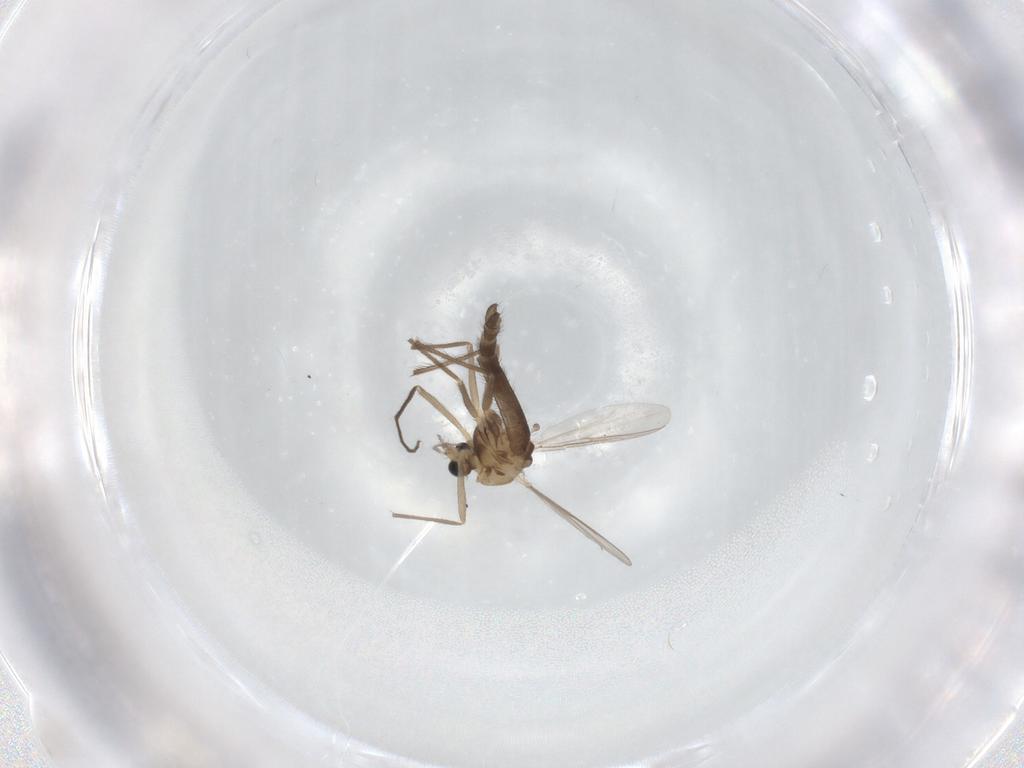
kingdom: Animalia
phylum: Arthropoda
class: Insecta
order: Diptera
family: Chironomidae
